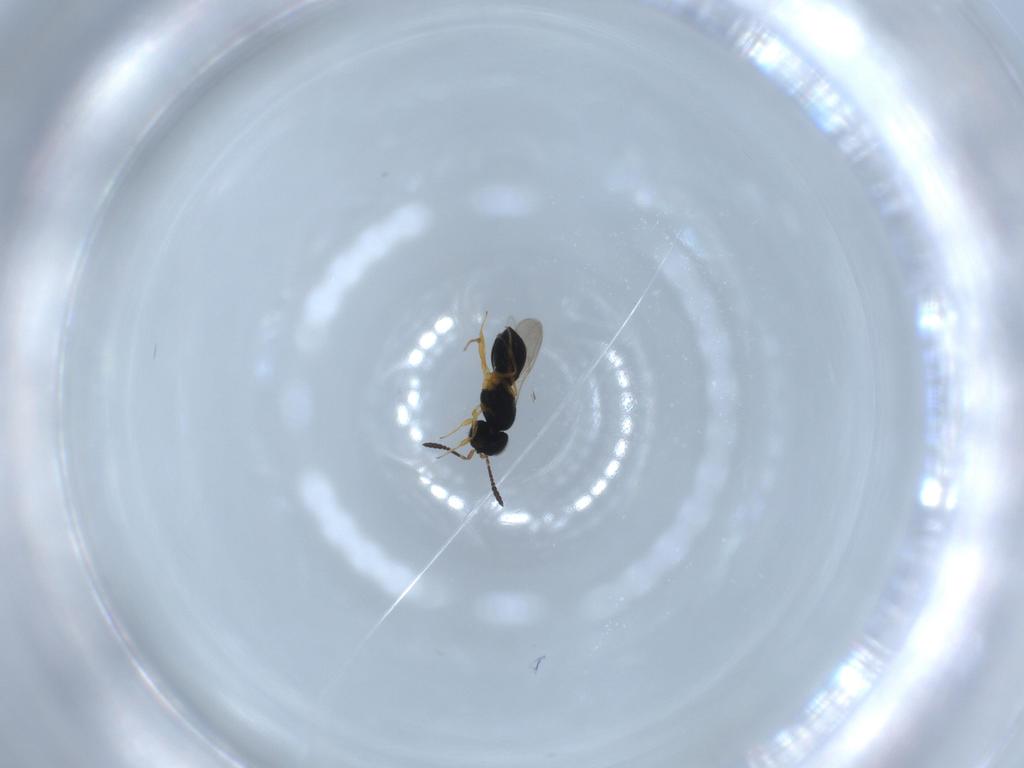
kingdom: Animalia
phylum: Arthropoda
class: Insecta
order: Hymenoptera
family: Scelionidae
